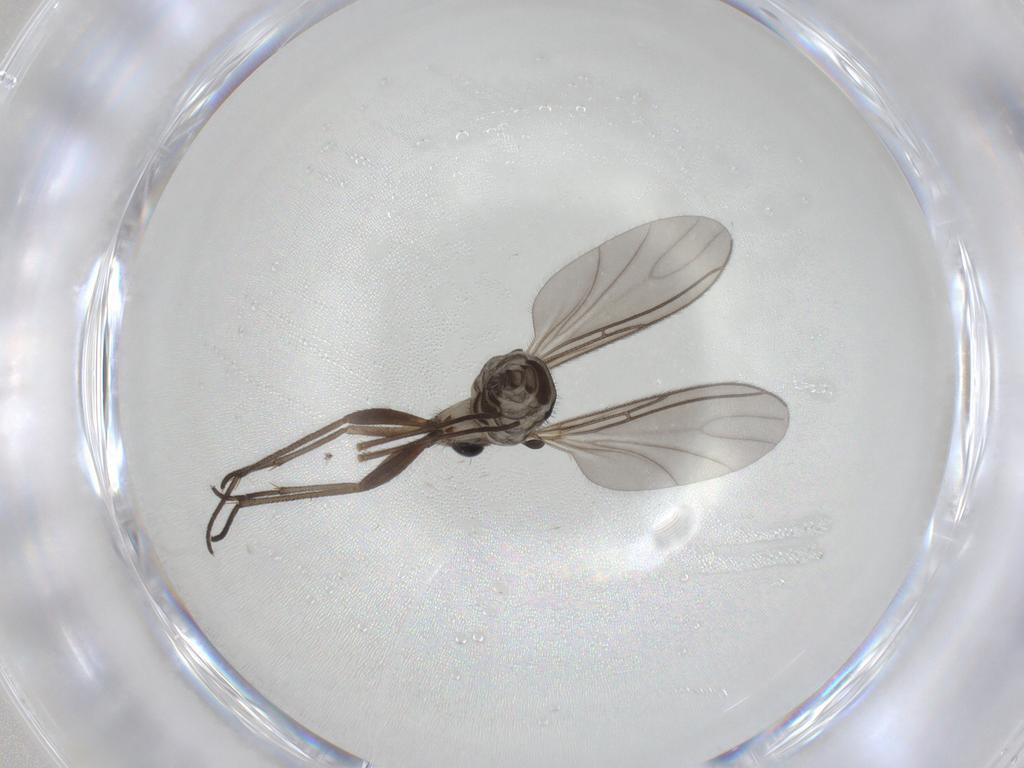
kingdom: Animalia
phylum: Arthropoda
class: Insecta
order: Diptera
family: Sciaridae
